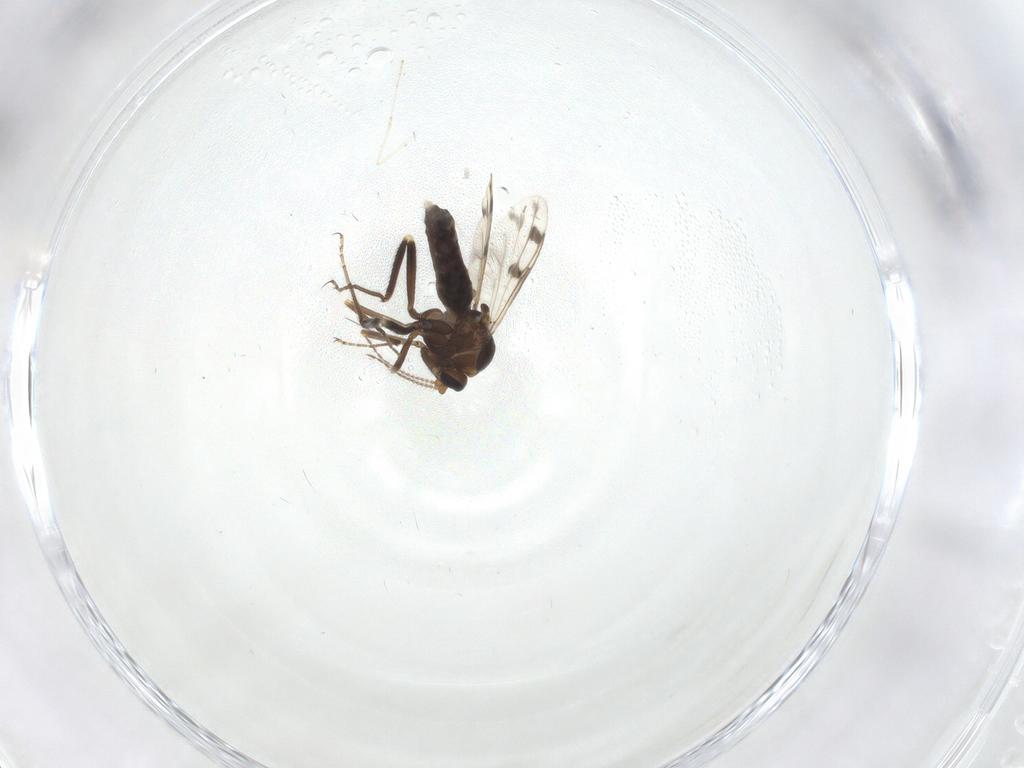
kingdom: Animalia
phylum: Arthropoda
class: Insecta
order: Diptera
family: Ceratopogonidae
